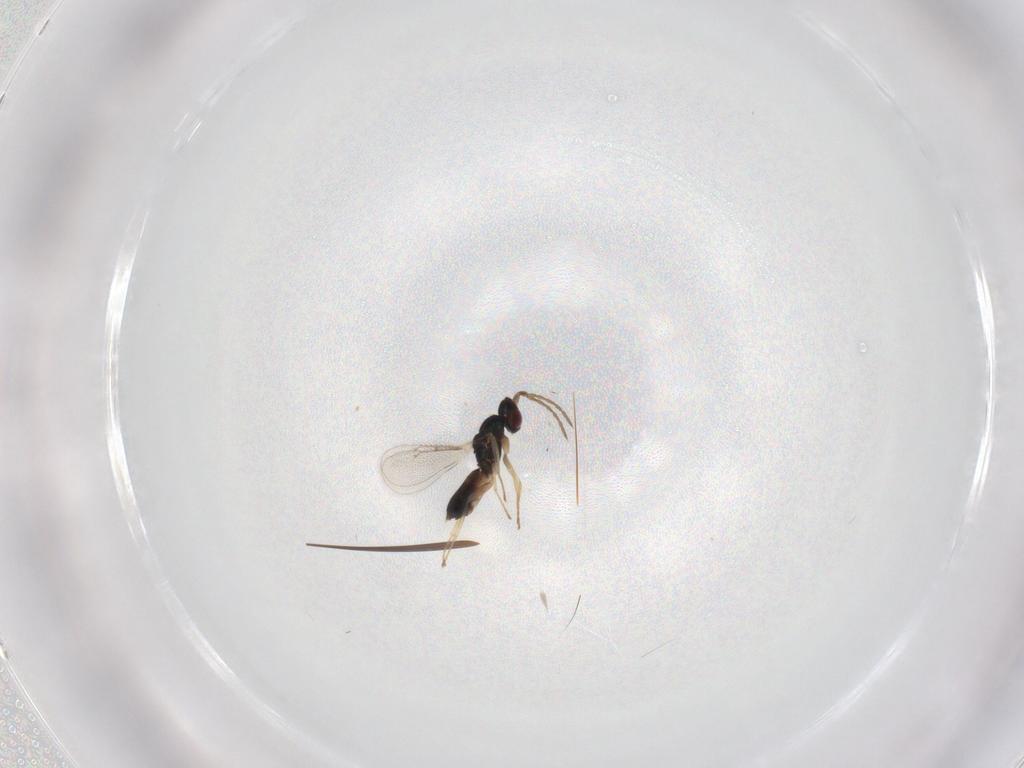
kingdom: Animalia
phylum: Arthropoda
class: Insecta
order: Hymenoptera
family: Eulophidae
